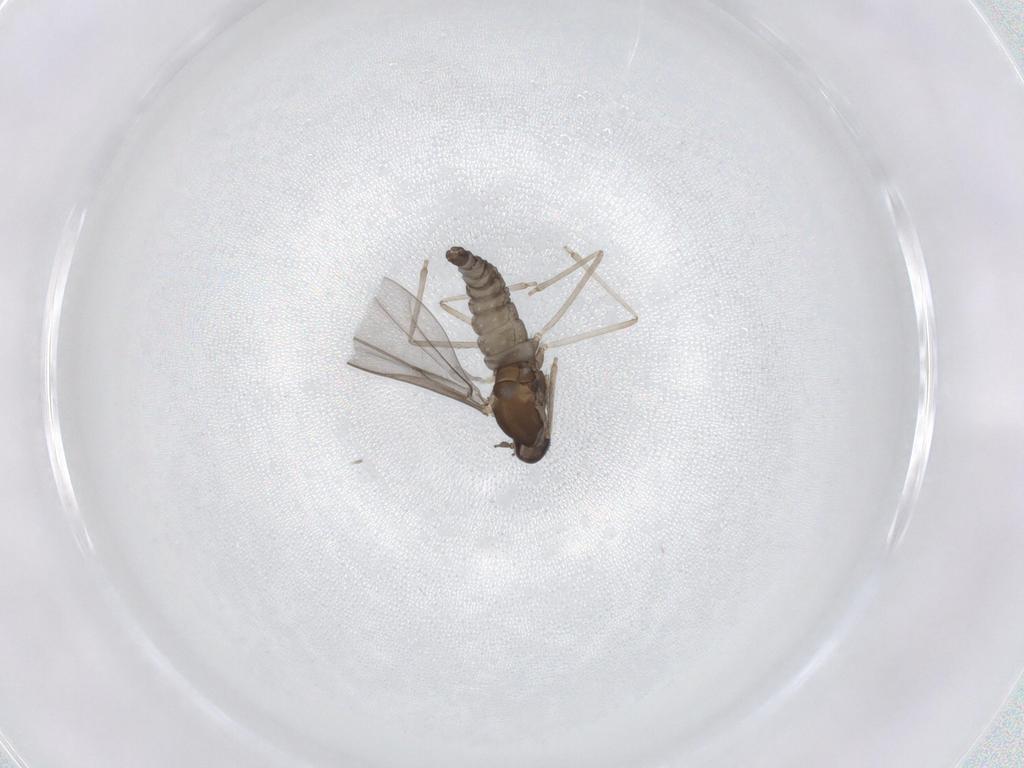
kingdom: Animalia
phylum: Arthropoda
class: Insecta
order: Diptera
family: Cecidomyiidae
